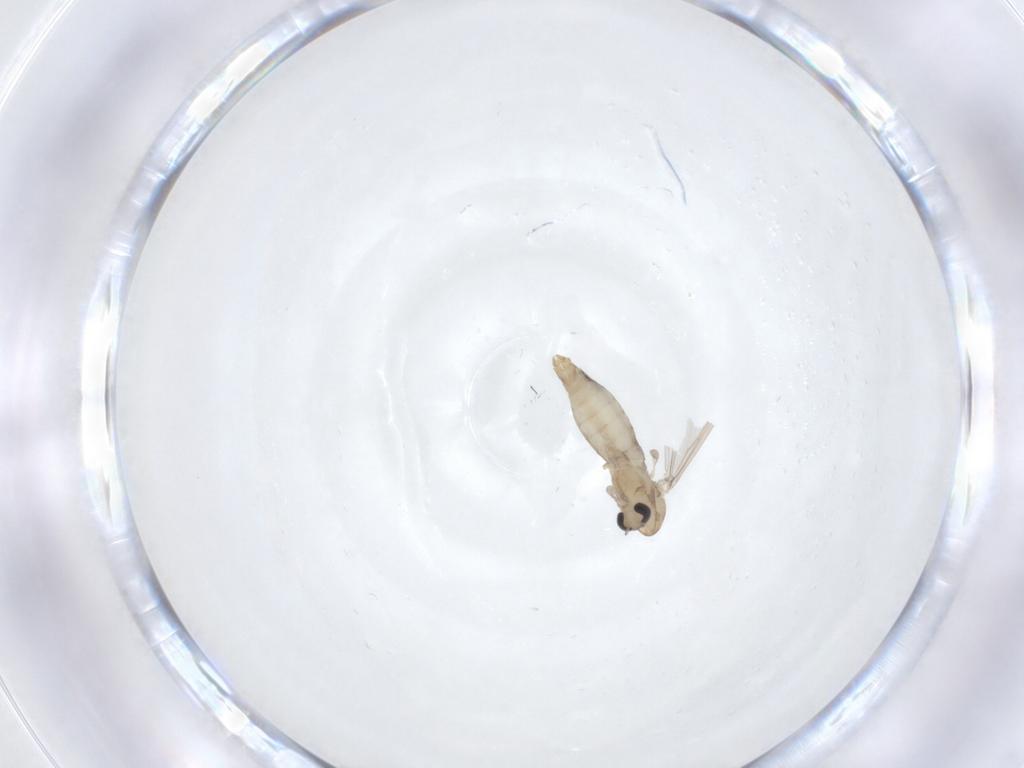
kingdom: Animalia
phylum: Arthropoda
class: Insecta
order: Diptera
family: Chironomidae
